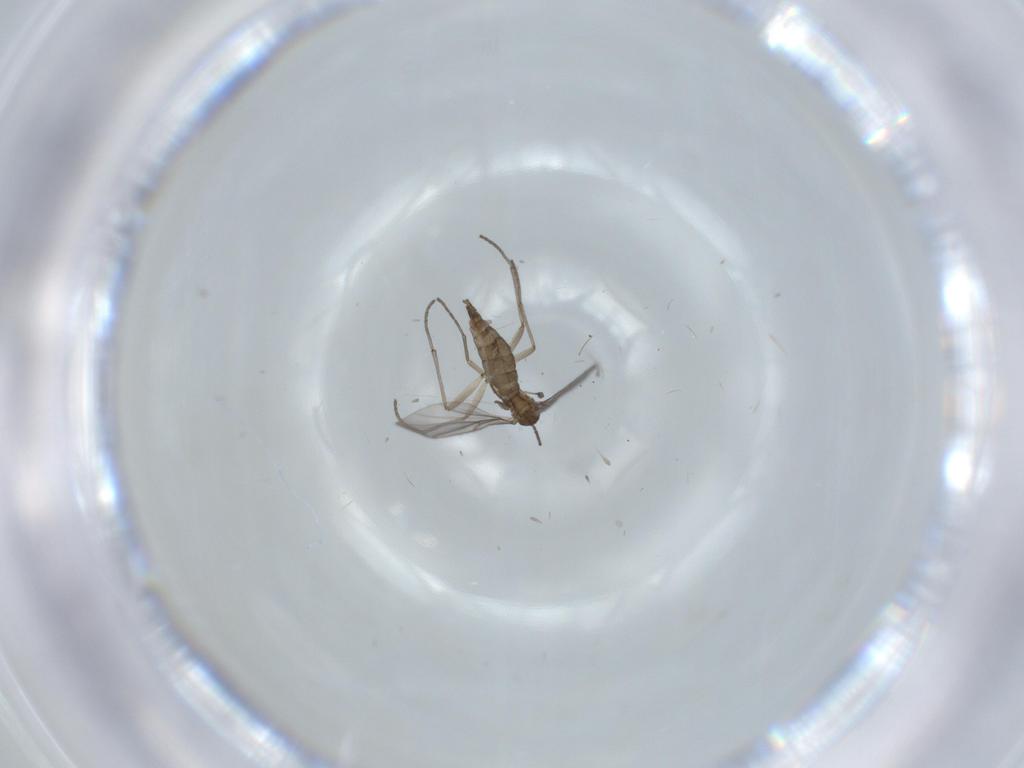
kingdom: Animalia
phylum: Arthropoda
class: Insecta
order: Diptera
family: Sciaridae
